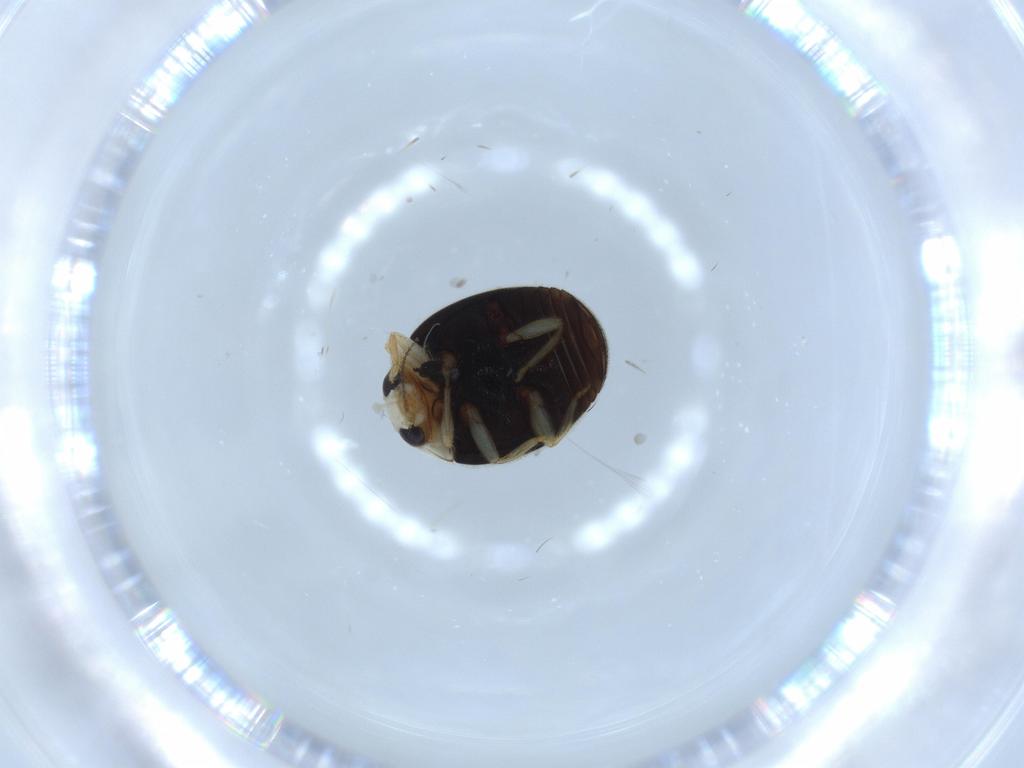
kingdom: Animalia
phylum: Arthropoda
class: Insecta
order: Coleoptera
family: Coccinellidae
